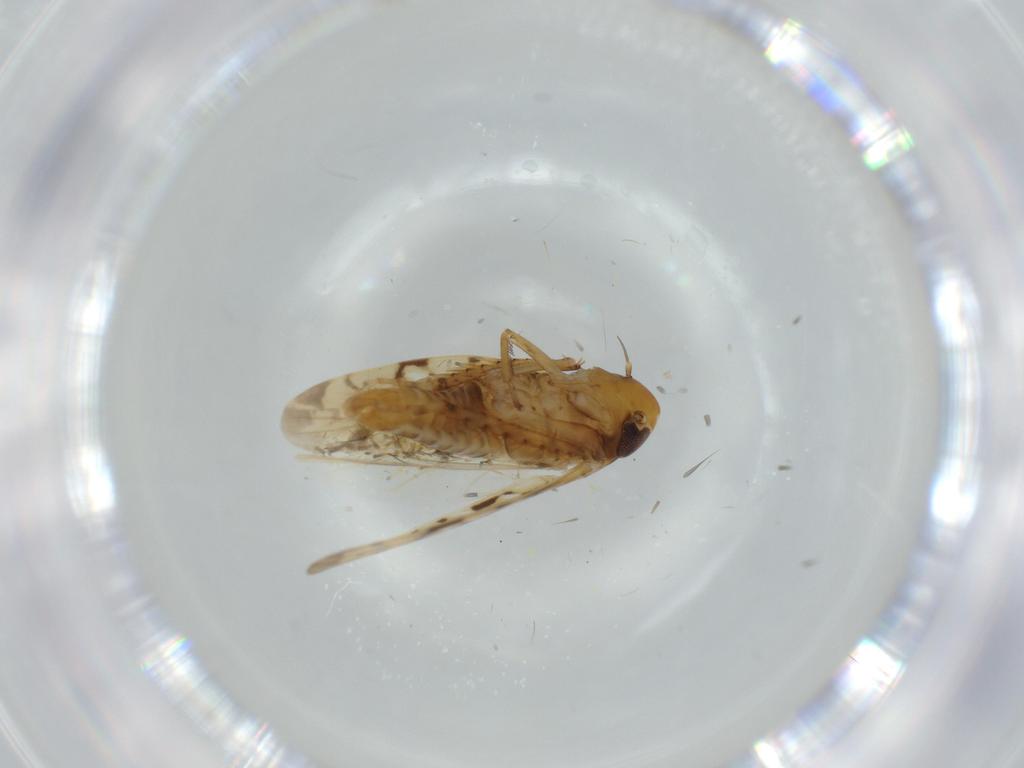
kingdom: Animalia
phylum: Arthropoda
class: Insecta
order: Hemiptera
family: Cicadellidae
